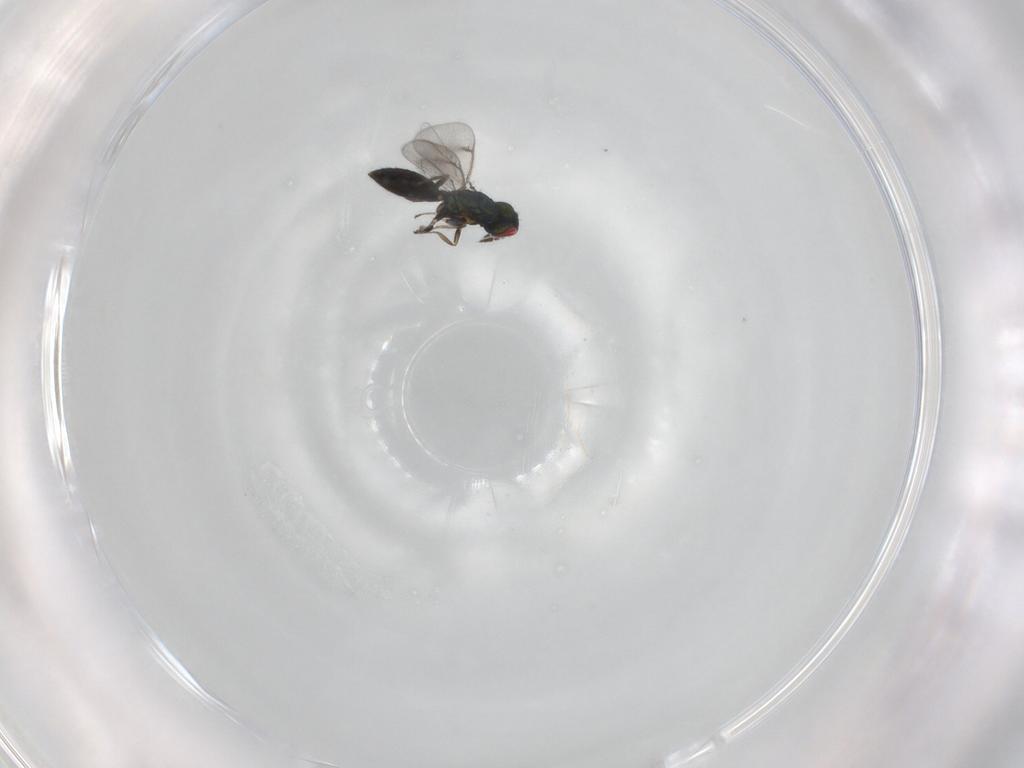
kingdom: Animalia
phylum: Arthropoda
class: Insecta
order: Hymenoptera
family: Eulophidae
